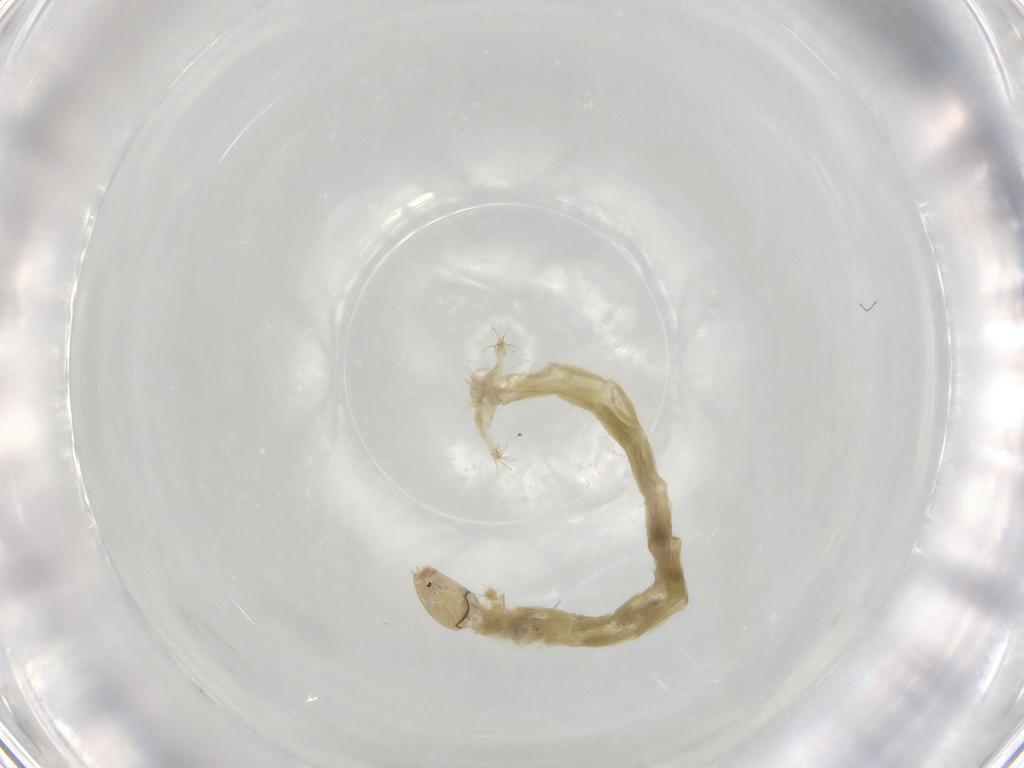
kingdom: Animalia
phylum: Arthropoda
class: Insecta
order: Diptera
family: Chironomidae
